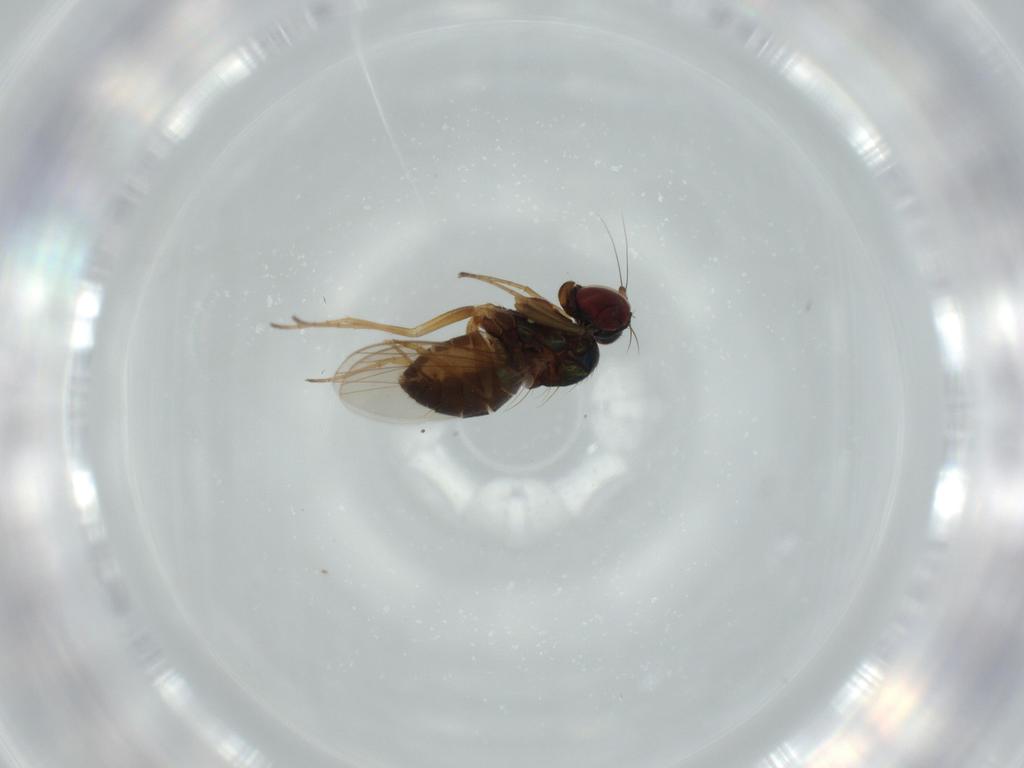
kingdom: Animalia
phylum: Arthropoda
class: Insecta
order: Diptera
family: Dolichopodidae
